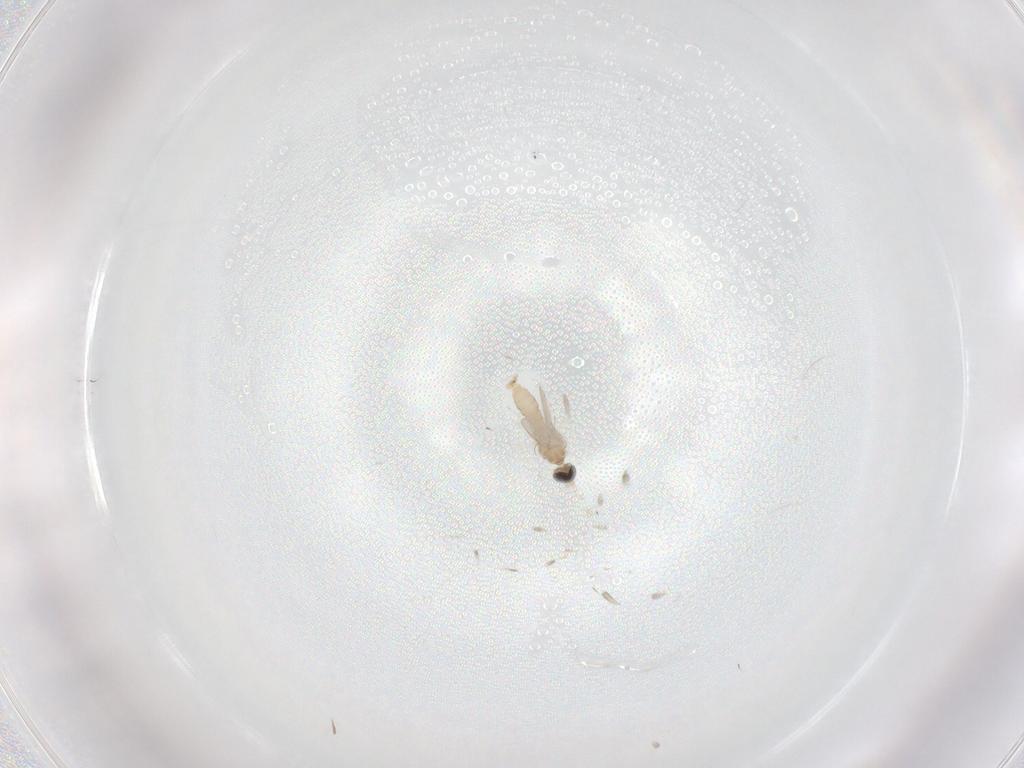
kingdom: Animalia
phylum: Arthropoda
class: Insecta
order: Diptera
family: Cecidomyiidae
